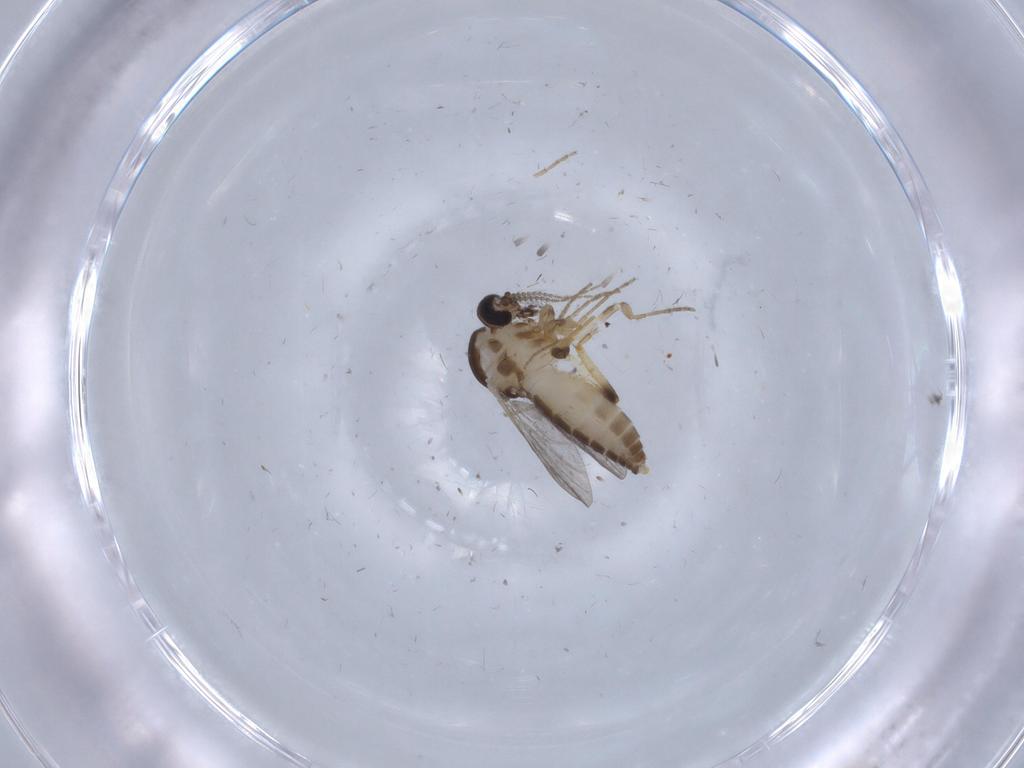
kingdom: Animalia
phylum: Arthropoda
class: Insecta
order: Diptera
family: Ceratopogonidae
